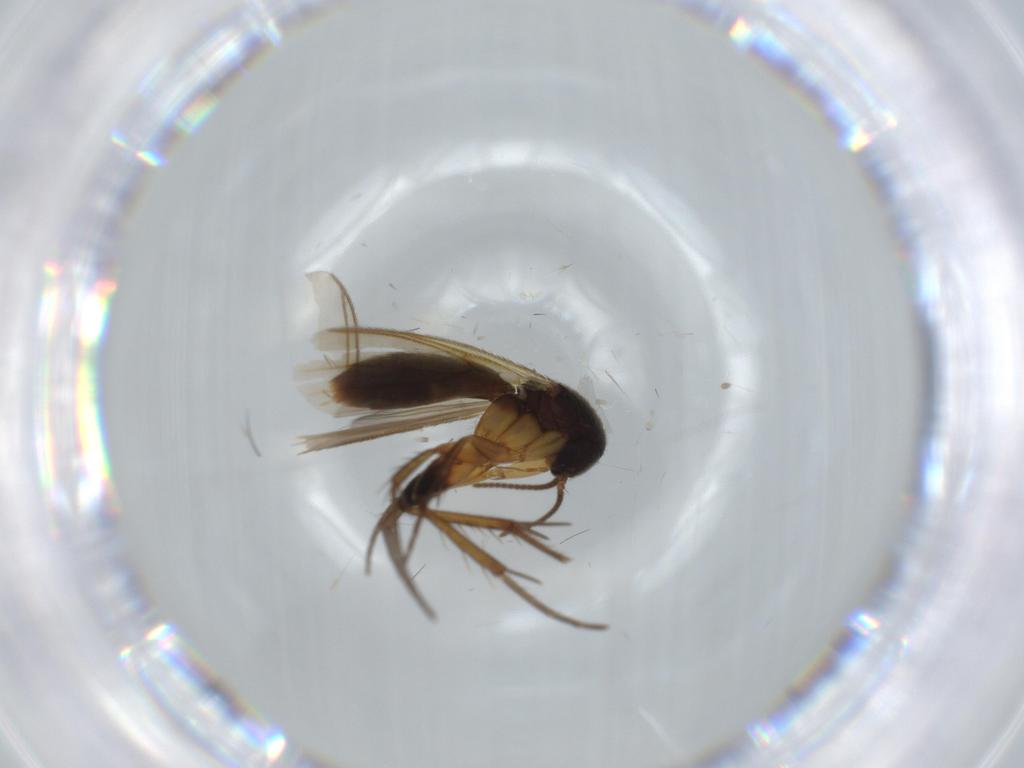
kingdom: Animalia
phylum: Arthropoda
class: Insecta
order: Diptera
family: Mycetophilidae
